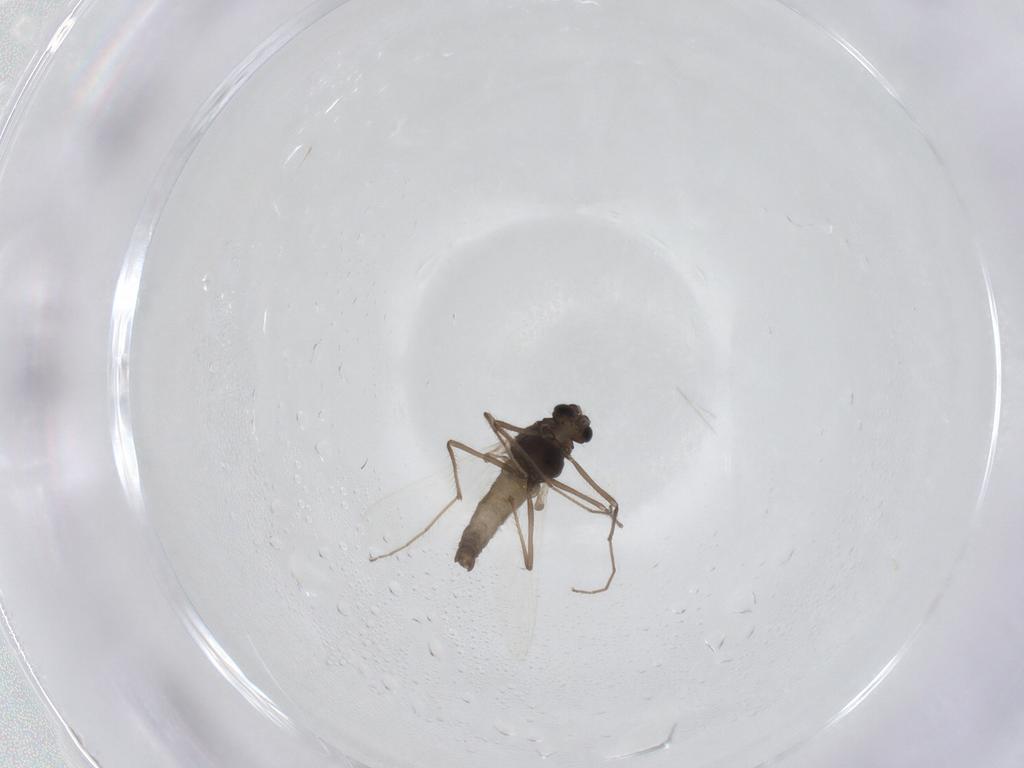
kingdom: Animalia
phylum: Arthropoda
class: Insecta
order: Diptera
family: Chironomidae
